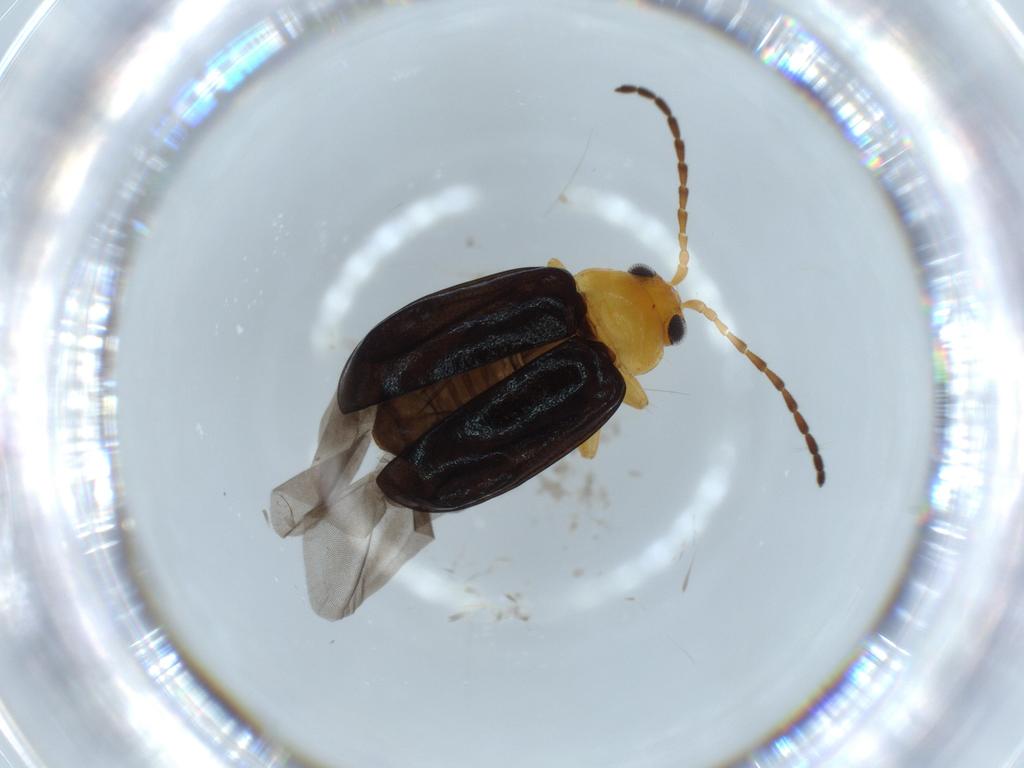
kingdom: Animalia
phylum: Arthropoda
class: Insecta
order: Coleoptera
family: Chrysomelidae
